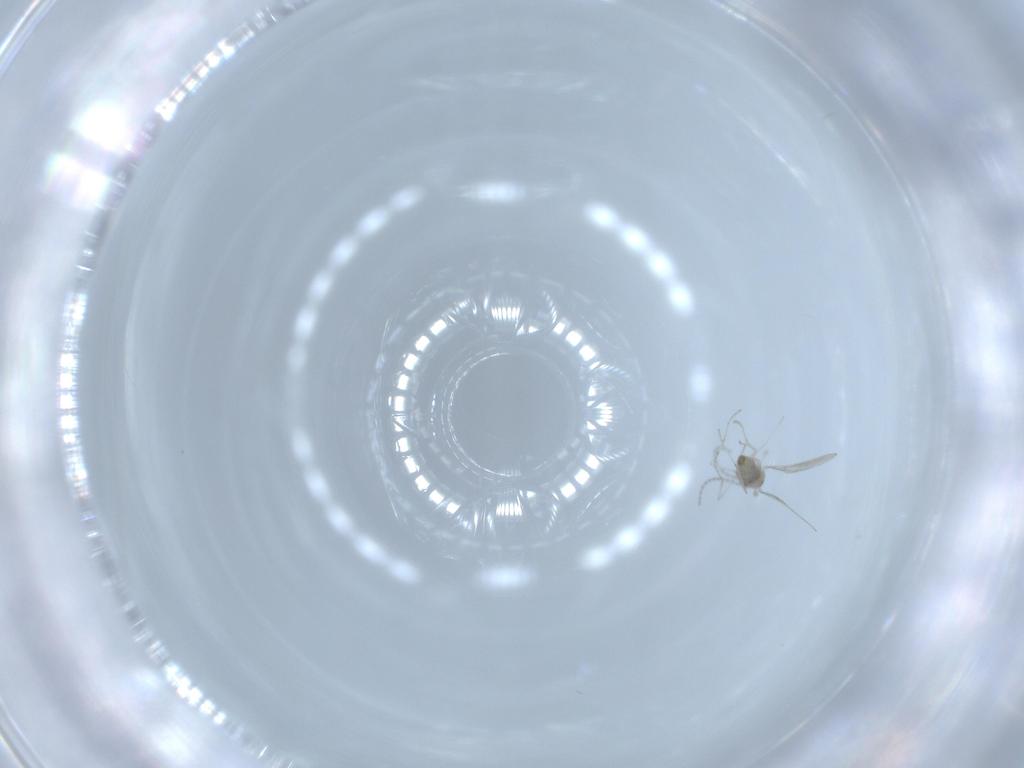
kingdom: Animalia
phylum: Arthropoda
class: Insecta
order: Diptera
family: Cecidomyiidae
